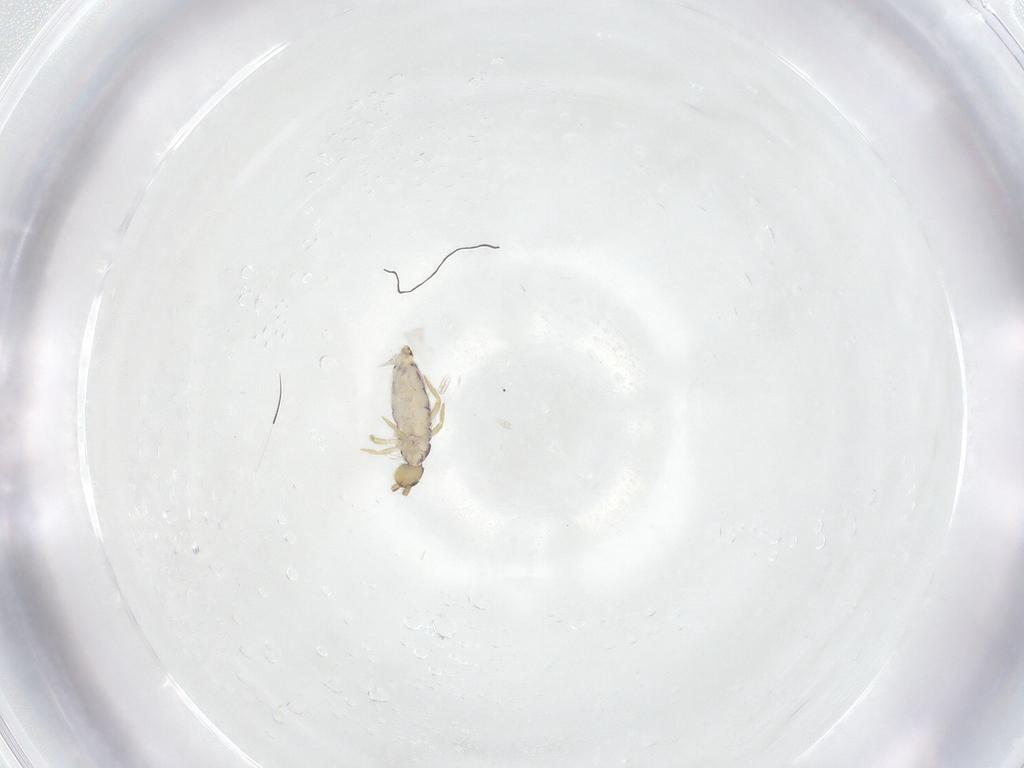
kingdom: Animalia
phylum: Arthropoda
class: Collembola
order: Entomobryomorpha
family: Entomobryidae
